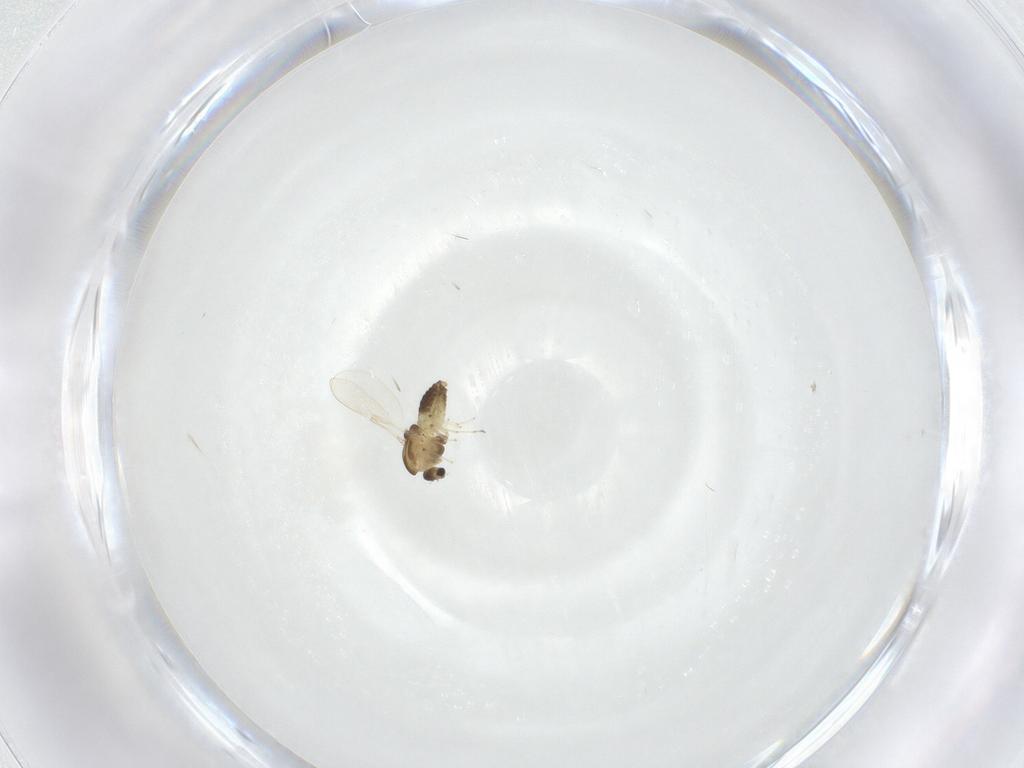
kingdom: Animalia
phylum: Arthropoda
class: Insecta
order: Diptera
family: Chironomidae
